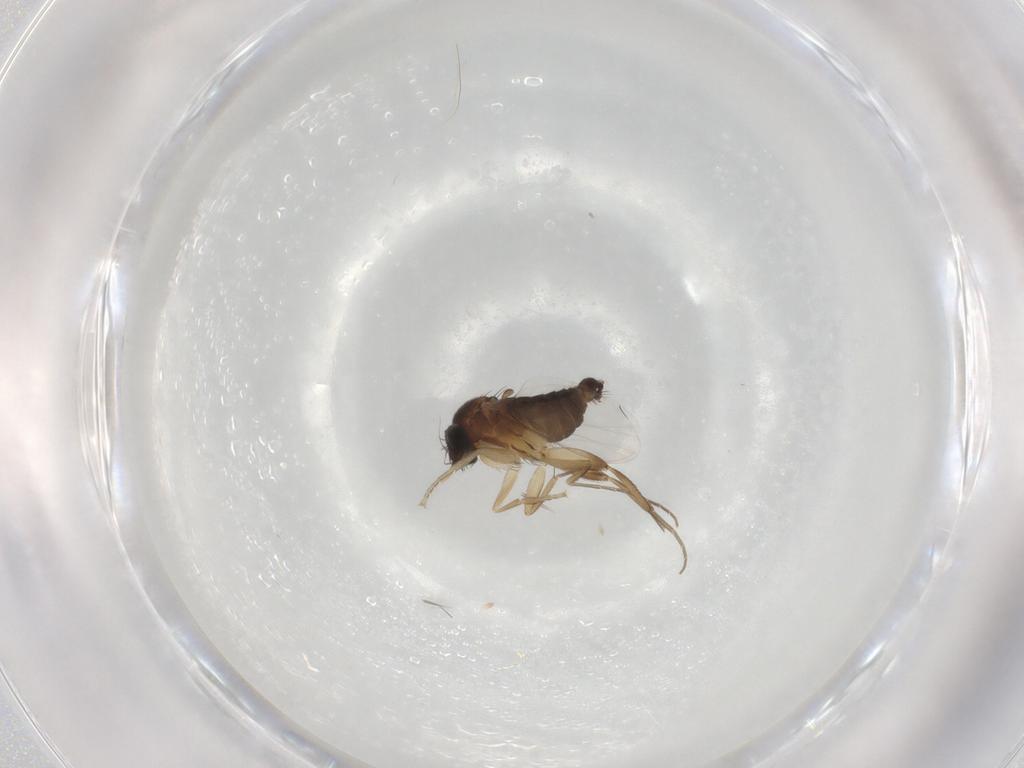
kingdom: Animalia
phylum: Arthropoda
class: Insecta
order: Diptera
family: Phoridae
